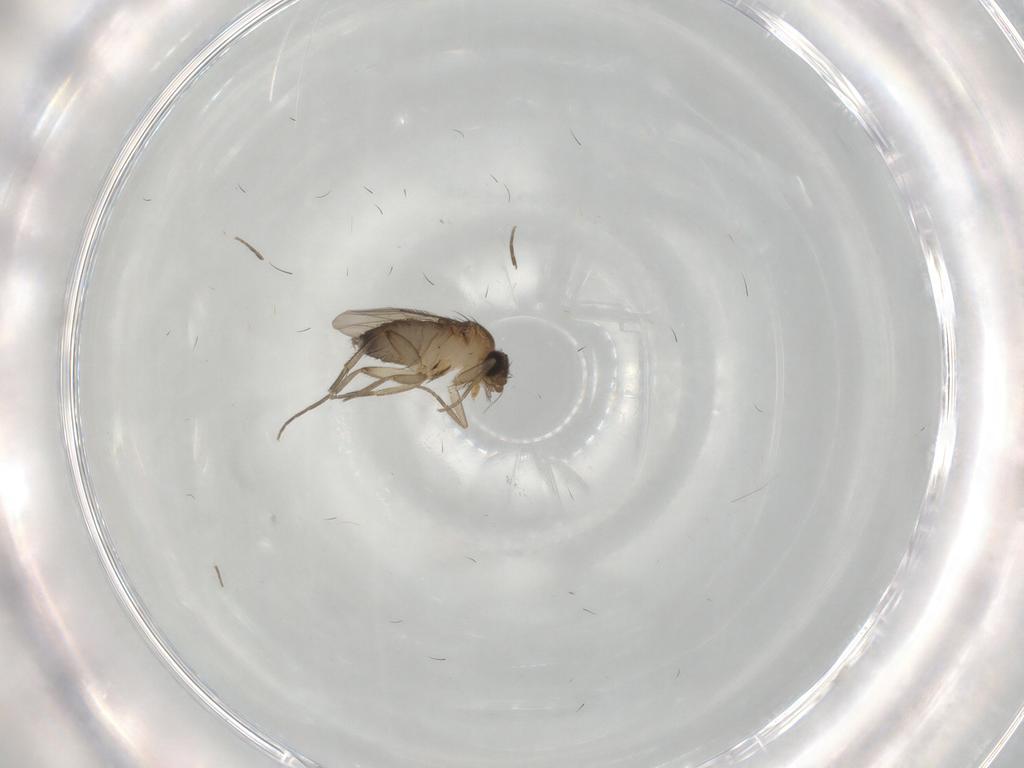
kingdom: Animalia
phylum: Arthropoda
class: Insecta
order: Diptera
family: Phoridae
